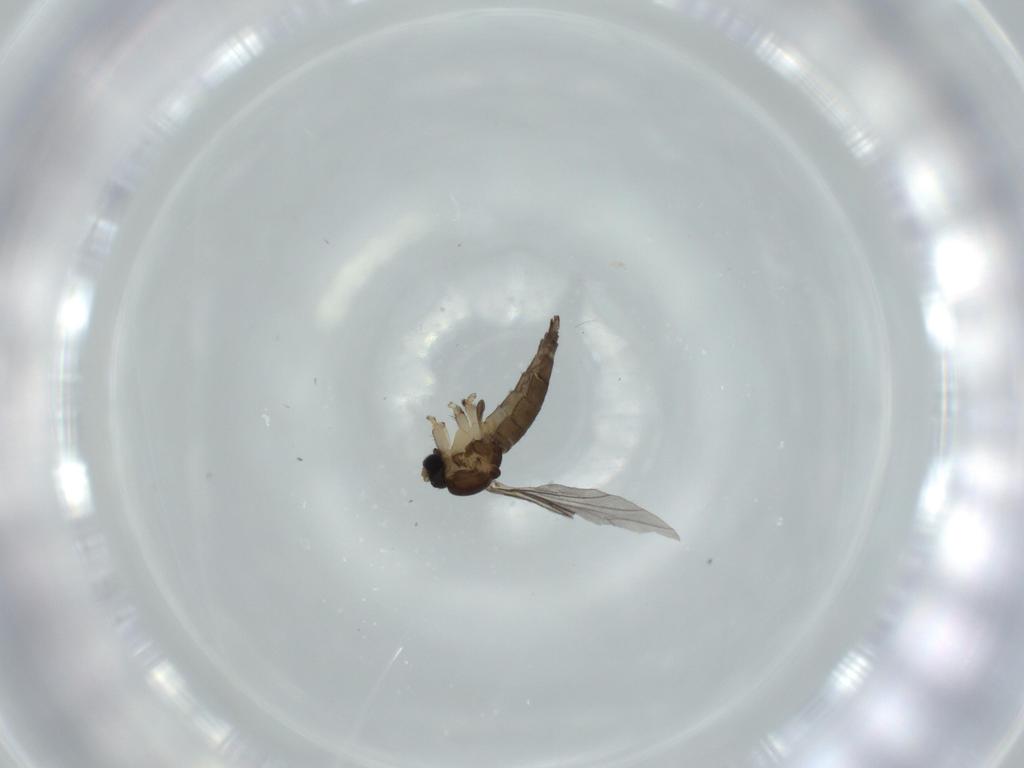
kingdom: Animalia
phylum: Arthropoda
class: Insecta
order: Diptera
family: Sciaridae
